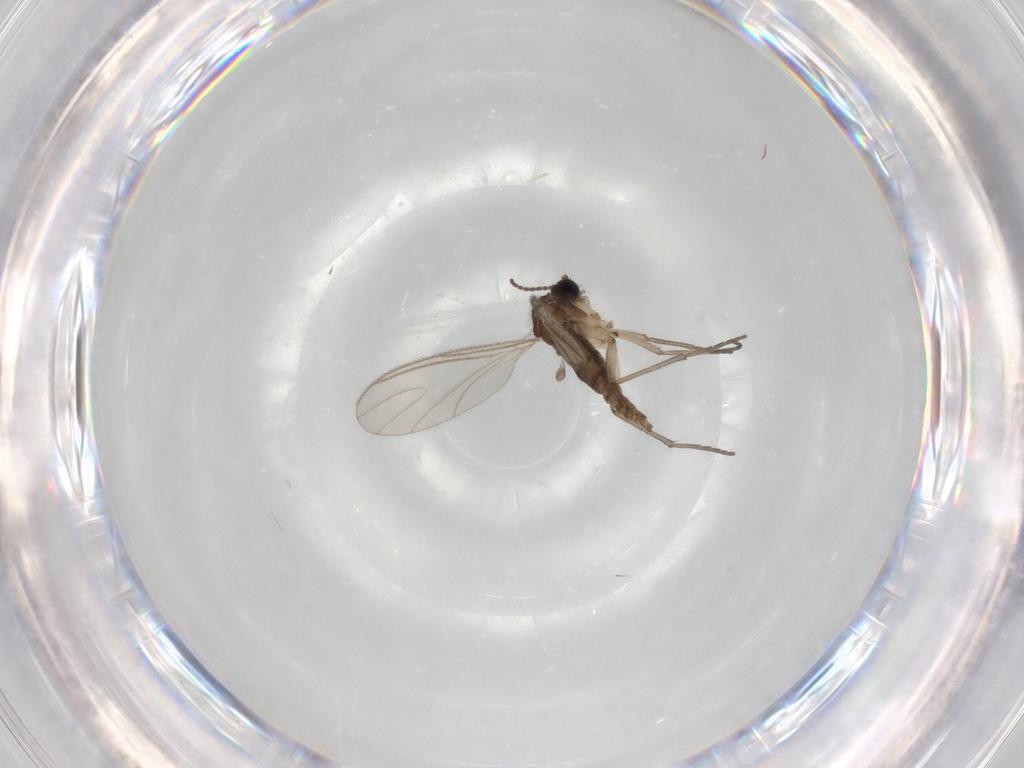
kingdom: Animalia
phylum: Arthropoda
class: Insecta
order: Diptera
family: Sciaridae
